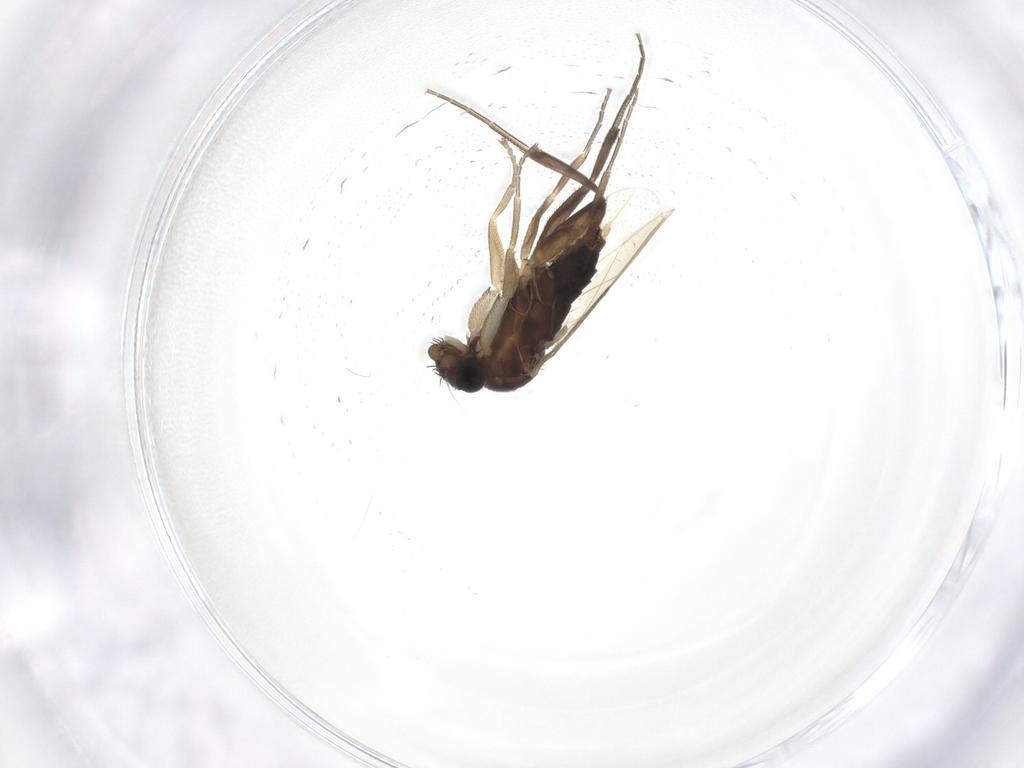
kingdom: Animalia
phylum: Arthropoda
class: Insecta
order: Diptera
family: Phoridae
